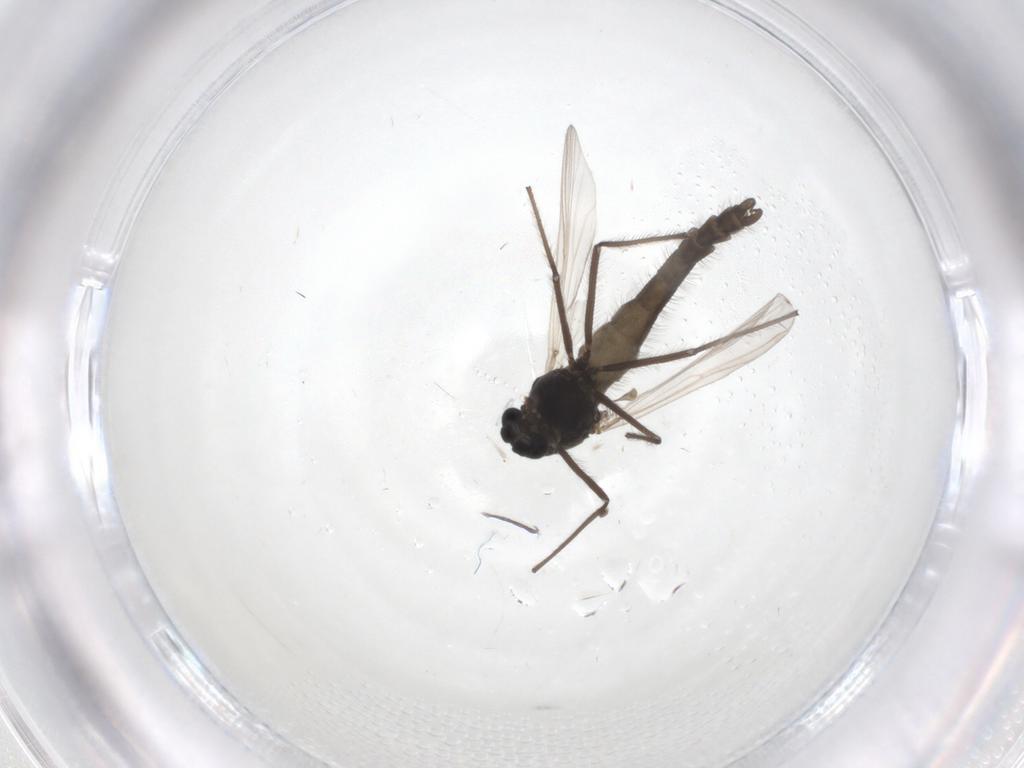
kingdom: Animalia
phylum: Arthropoda
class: Insecta
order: Diptera
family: Chironomidae
